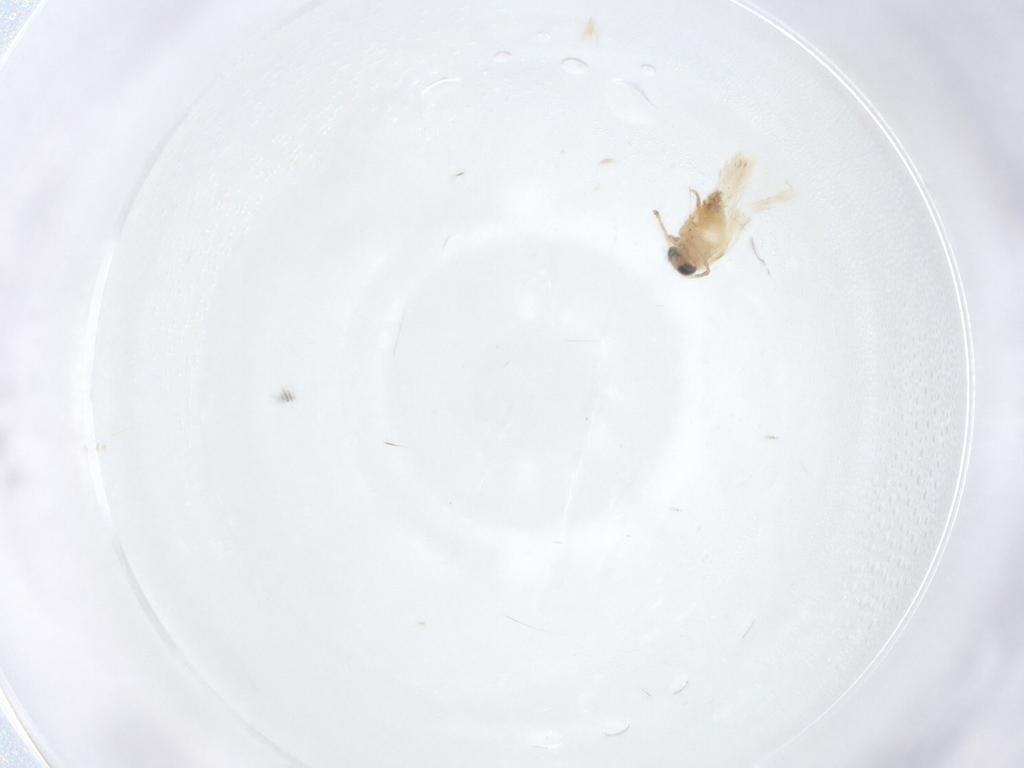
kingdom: Animalia
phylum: Arthropoda
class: Insecta
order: Lepidoptera
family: Crambidae
